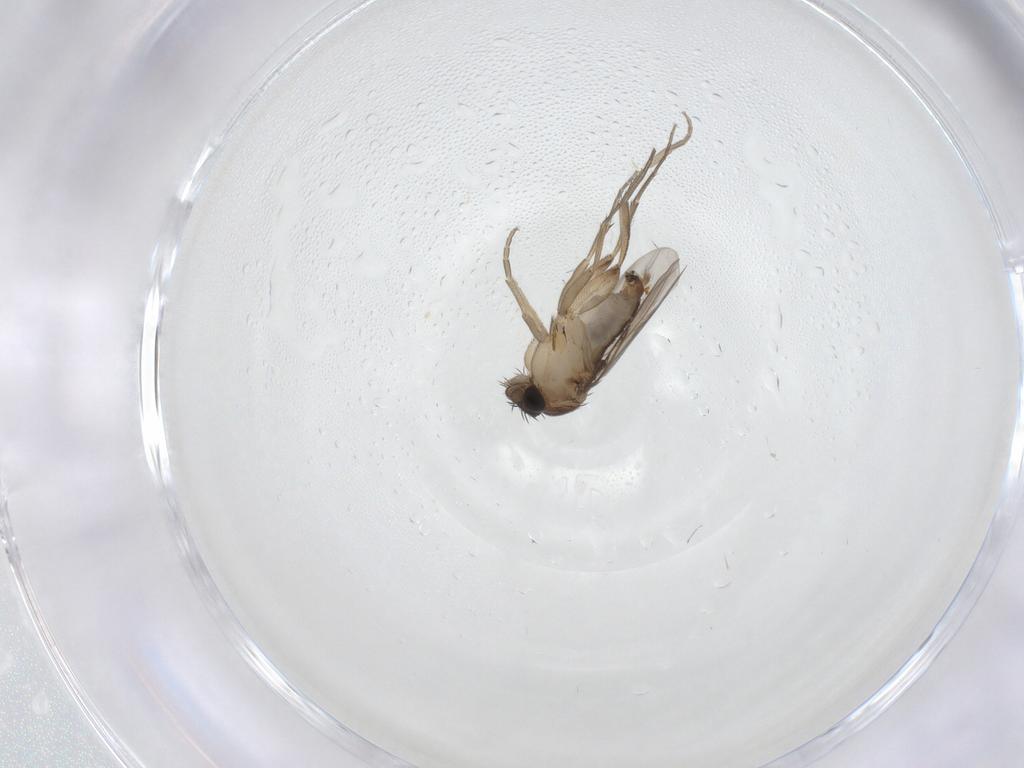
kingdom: Animalia
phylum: Arthropoda
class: Insecta
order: Diptera
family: Phoridae
